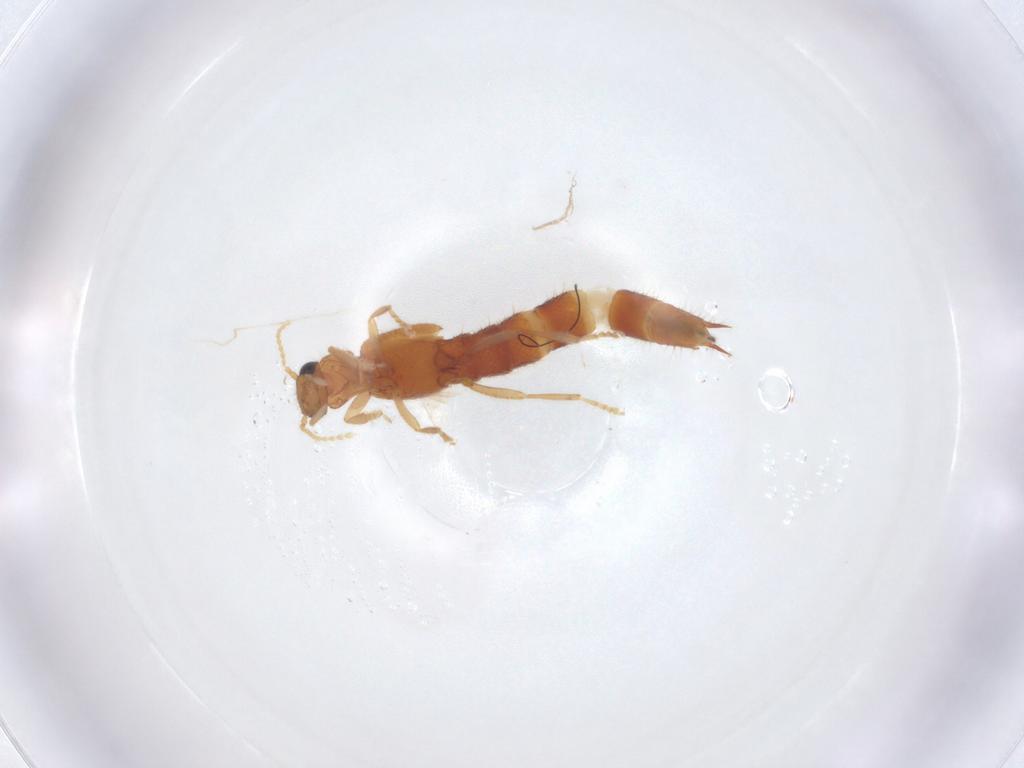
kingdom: Animalia
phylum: Arthropoda
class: Insecta
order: Coleoptera
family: Staphylinidae
